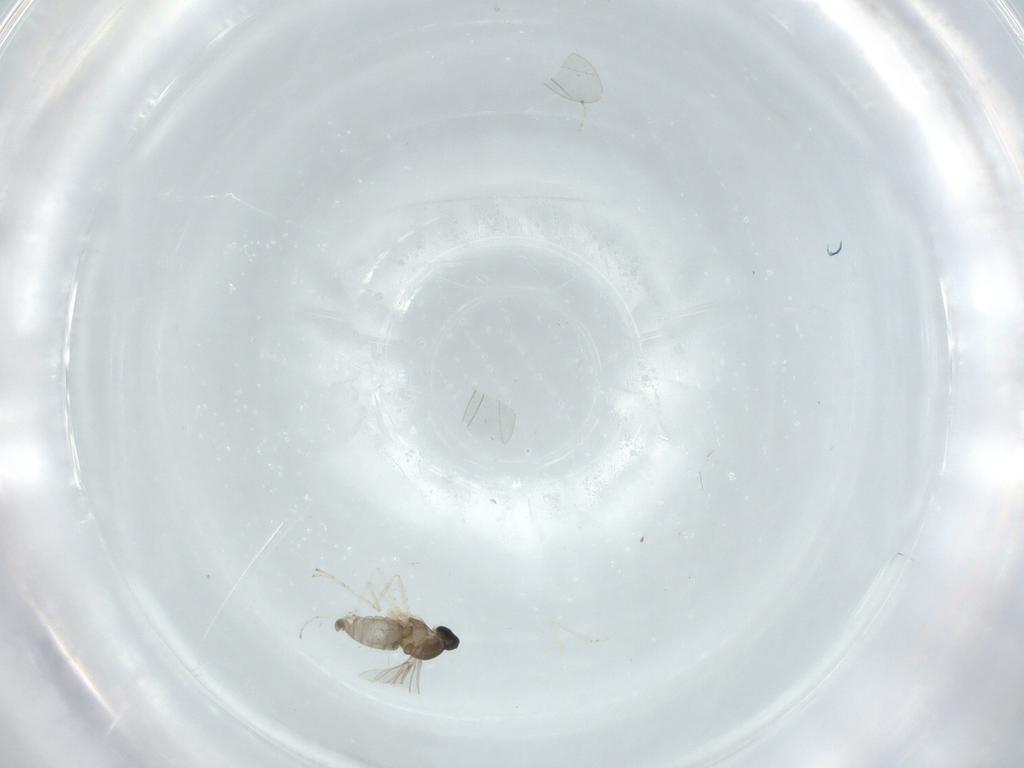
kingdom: Animalia
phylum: Arthropoda
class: Insecta
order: Diptera
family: Cecidomyiidae
